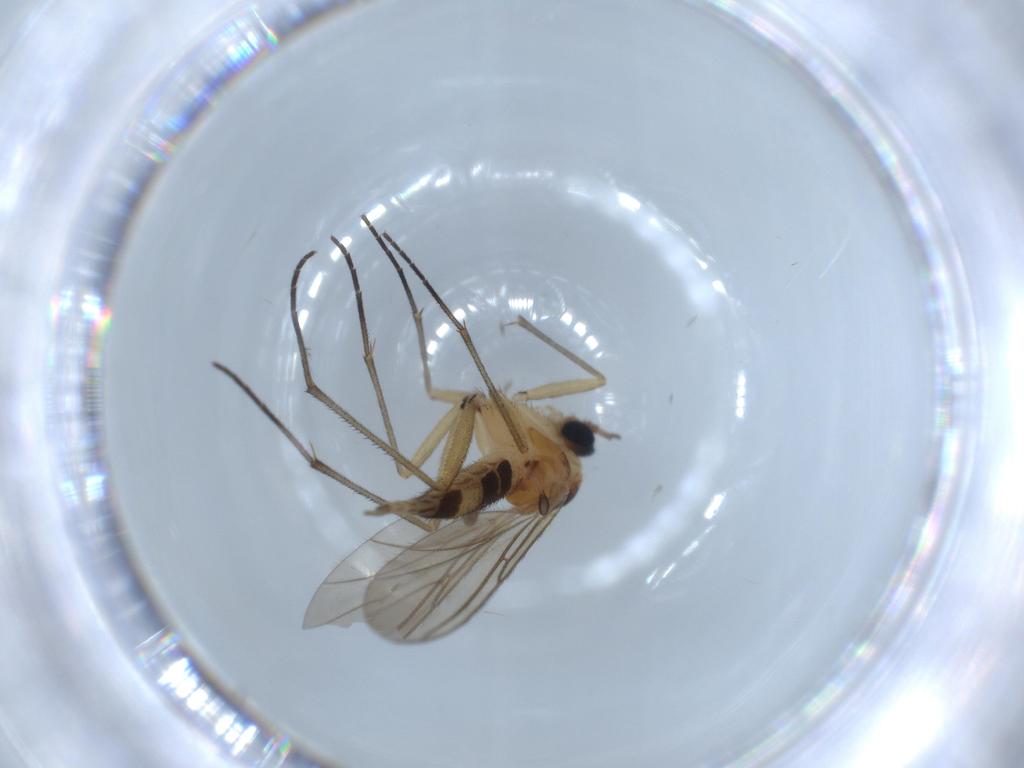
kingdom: Animalia
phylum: Arthropoda
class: Insecta
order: Diptera
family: Sciaridae
